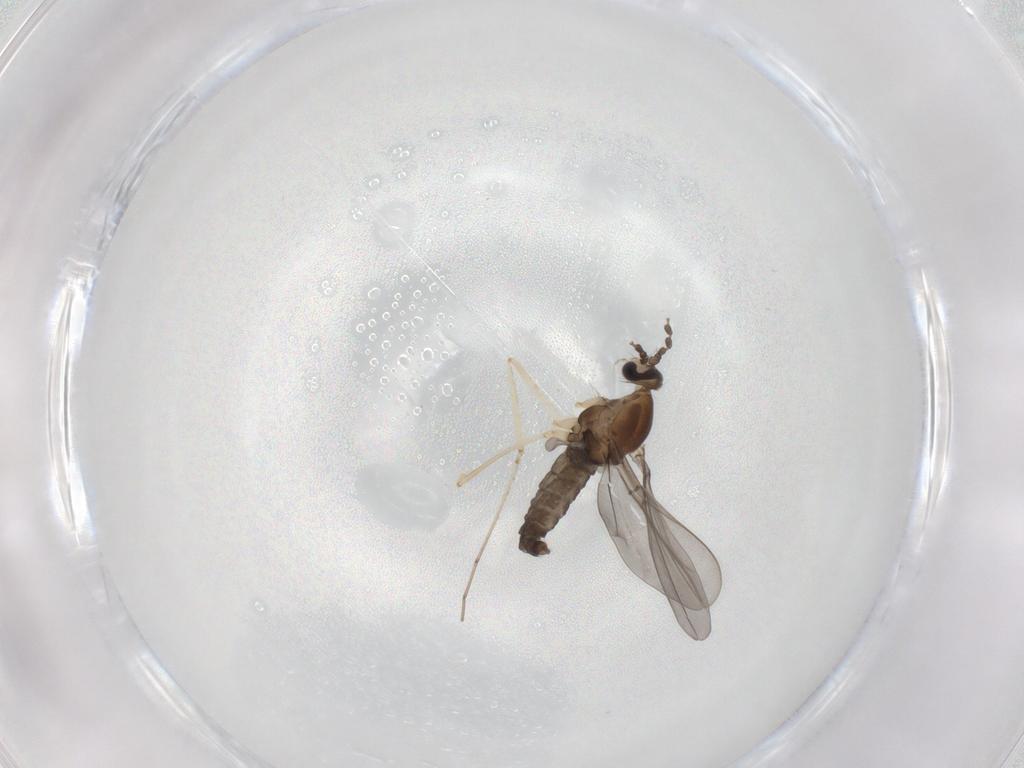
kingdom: Animalia
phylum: Arthropoda
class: Insecta
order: Diptera
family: Cecidomyiidae
